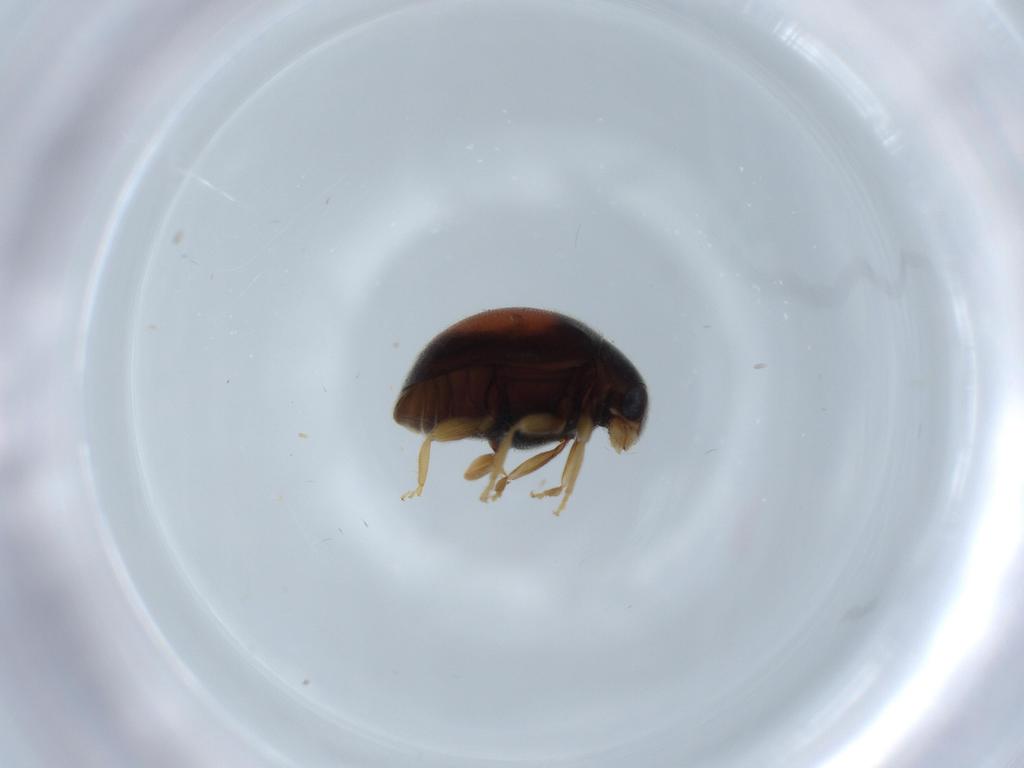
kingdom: Animalia
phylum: Arthropoda
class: Insecta
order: Coleoptera
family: Coccinellidae
